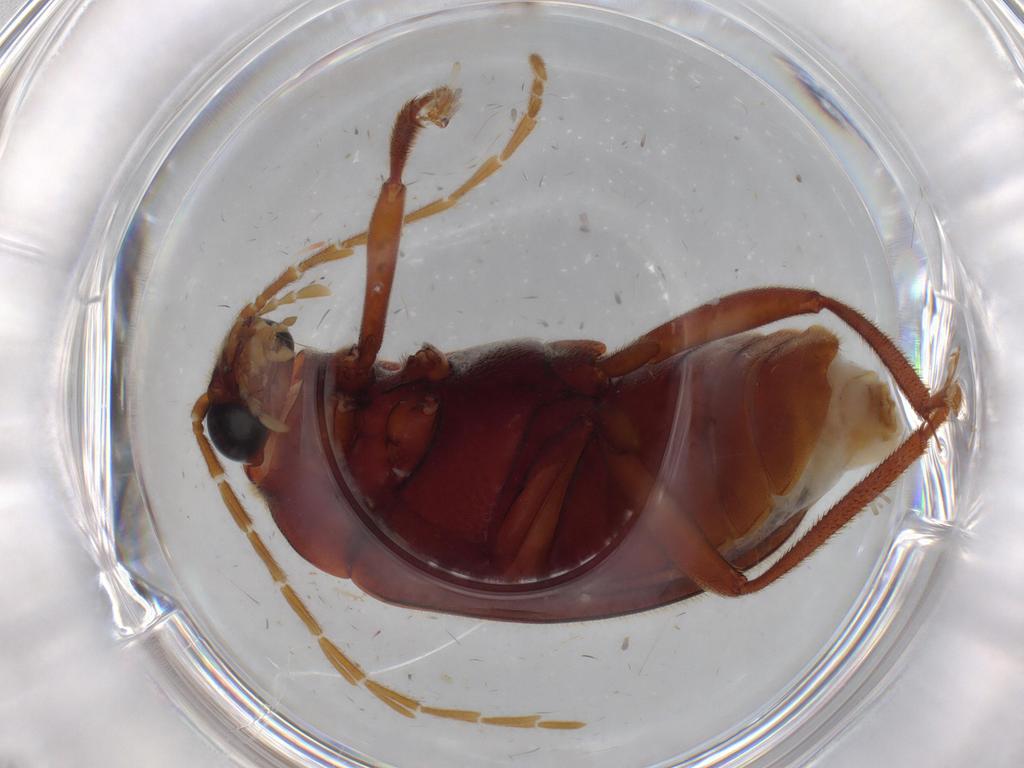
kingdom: Animalia
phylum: Arthropoda
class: Insecta
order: Coleoptera
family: Ptilodactylidae
